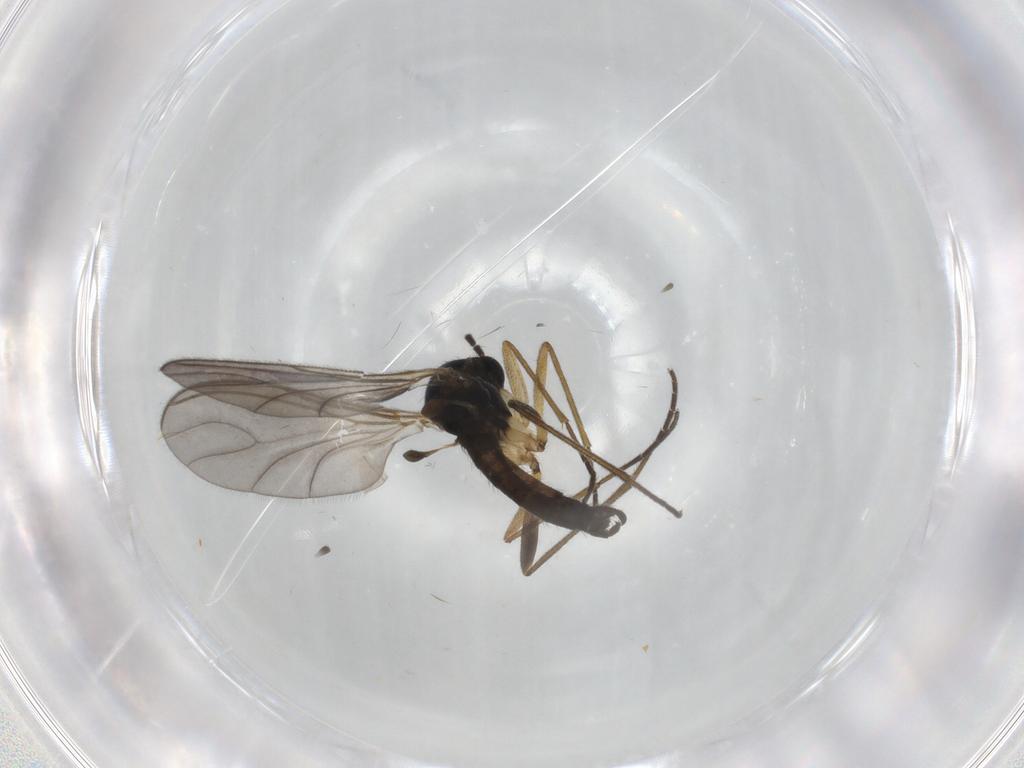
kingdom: Animalia
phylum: Arthropoda
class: Insecta
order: Diptera
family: Sciaridae
